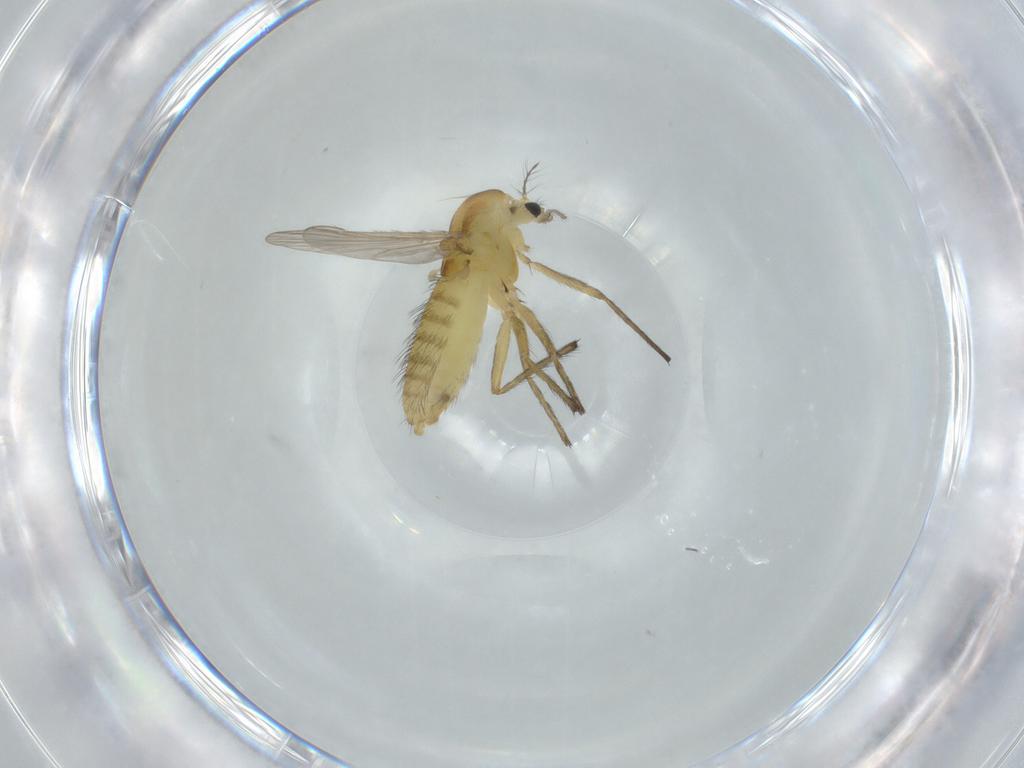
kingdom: Animalia
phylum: Arthropoda
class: Insecta
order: Diptera
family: Chironomidae
